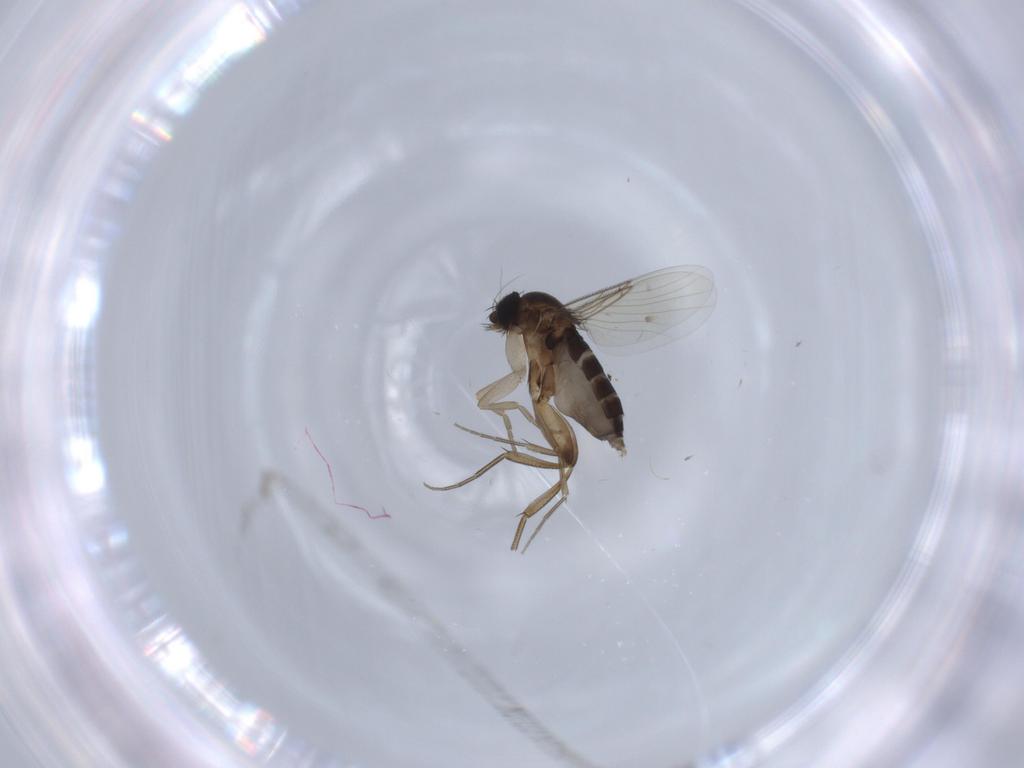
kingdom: Animalia
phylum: Arthropoda
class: Insecta
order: Diptera
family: Phoridae
